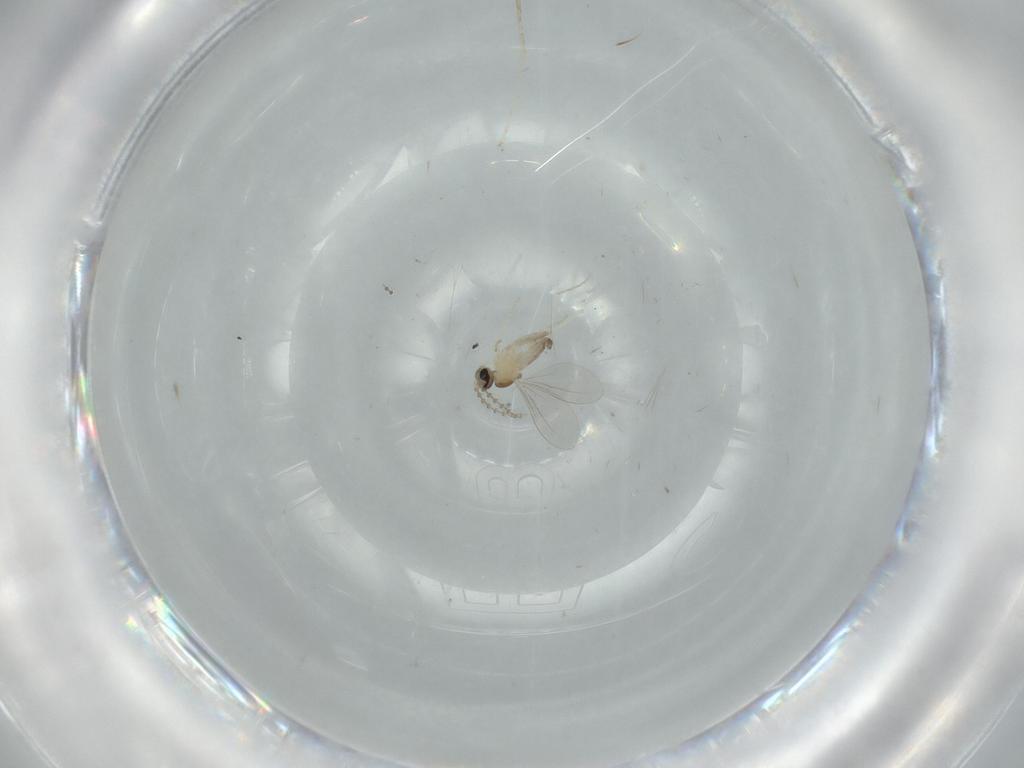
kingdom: Animalia
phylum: Arthropoda
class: Insecta
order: Diptera
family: Cecidomyiidae
